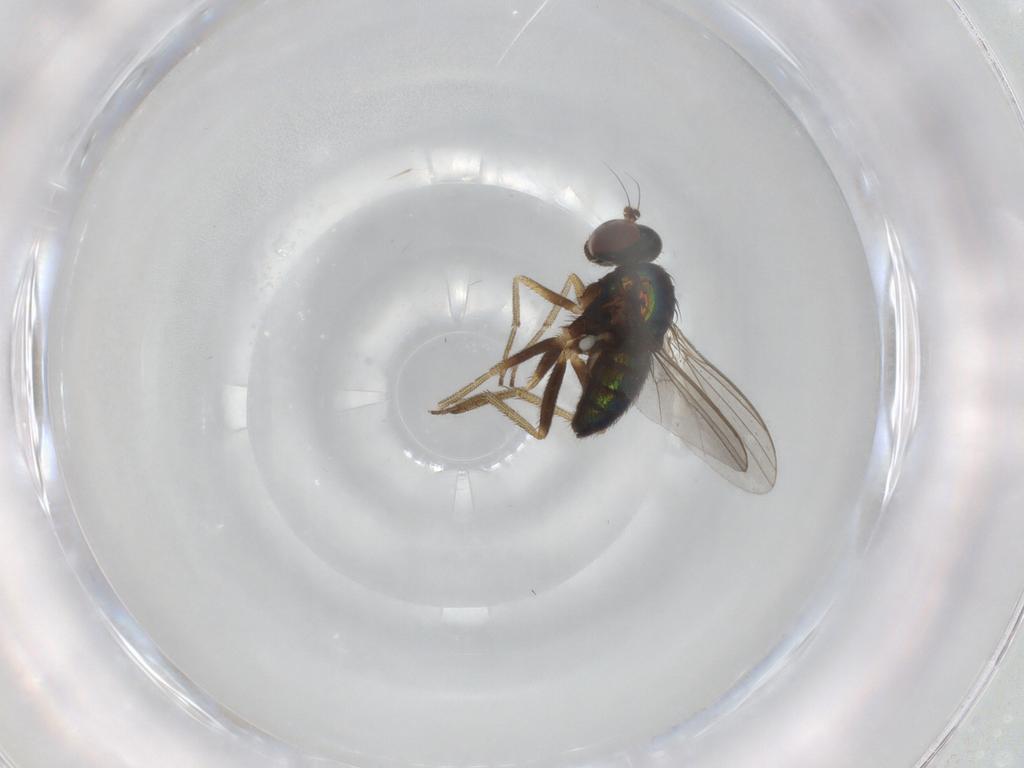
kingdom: Animalia
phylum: Arthropoda
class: Insecta
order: Diptera
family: Dolichopodidae
